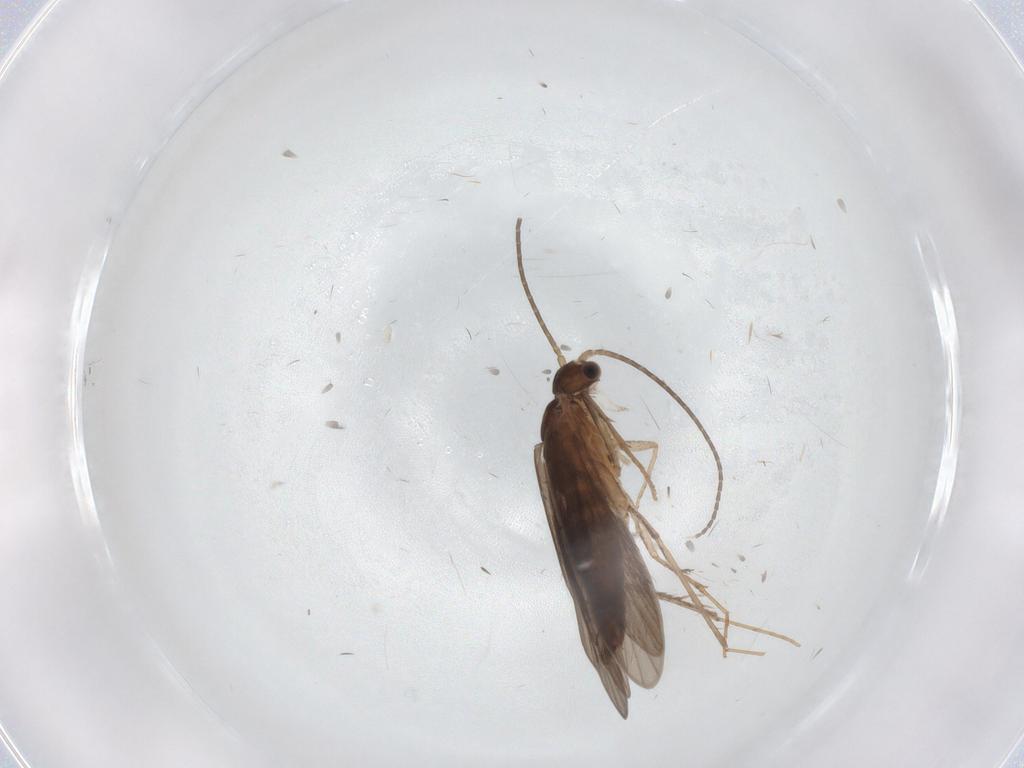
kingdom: Animalia
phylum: Arthropoda
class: Insecta
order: Trichoptera
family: Xiphocentronidae
